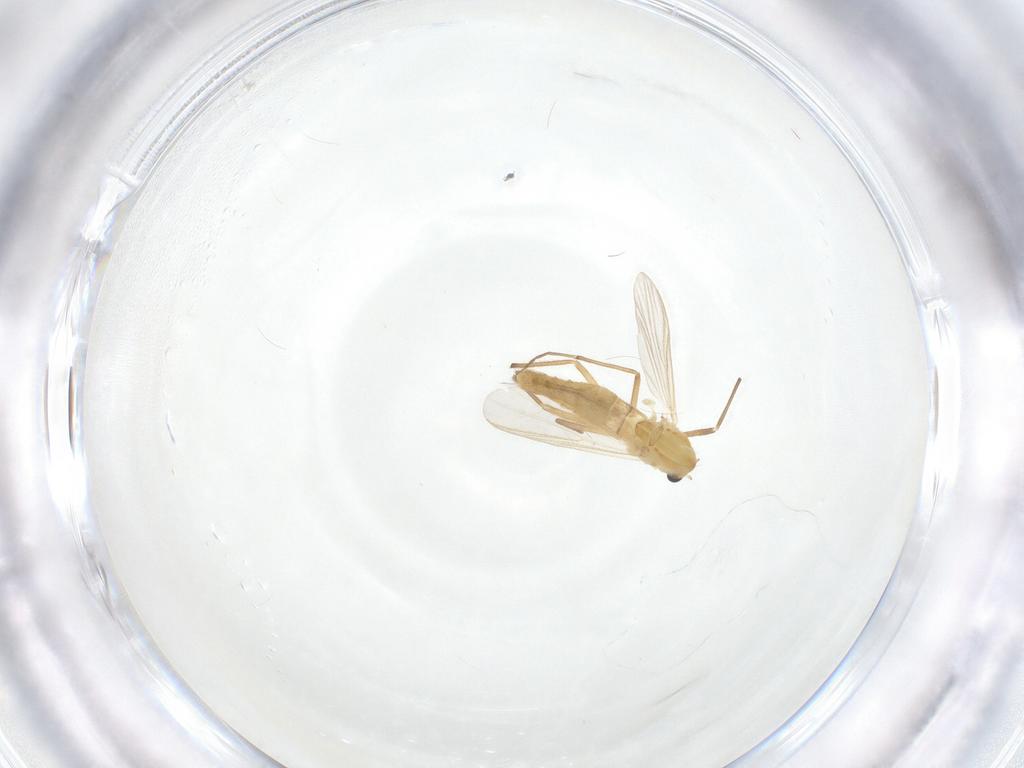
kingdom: Animalia
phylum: Arthropoda
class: Insecta
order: Diptera
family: Chironomidae
